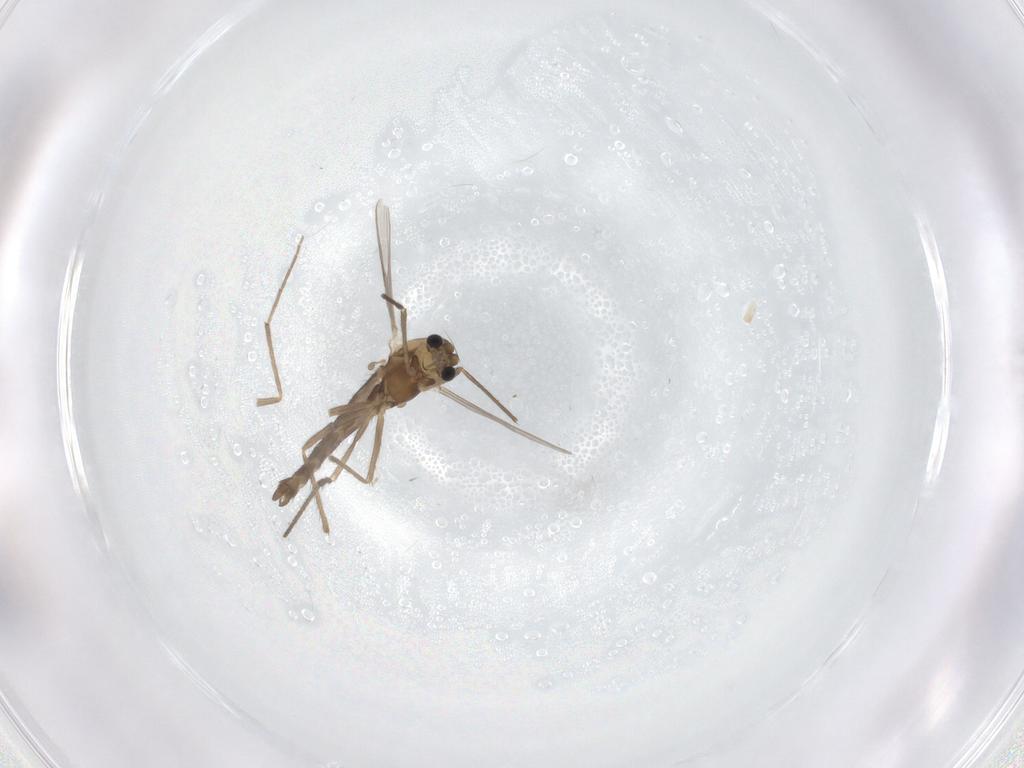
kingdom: Animalia
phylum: Arthropoda
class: Insecta
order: Diptera
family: Chironomidae
